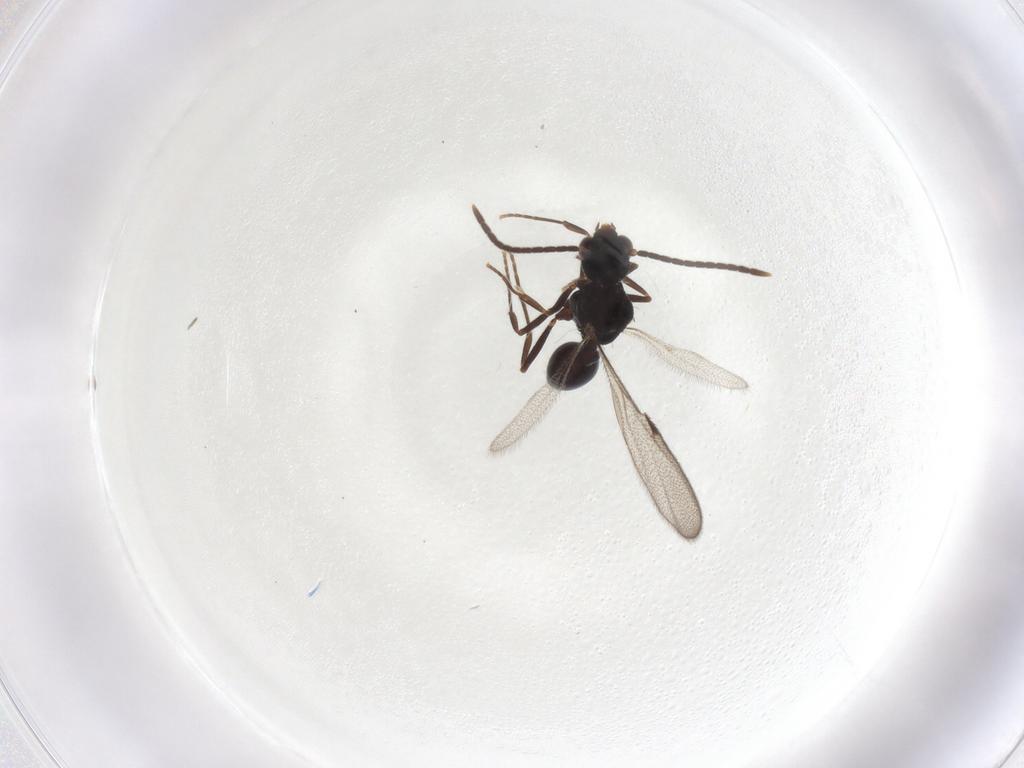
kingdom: Animalia
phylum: Arthropoda
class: Insecta
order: Hymenoptera
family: Formicidae
